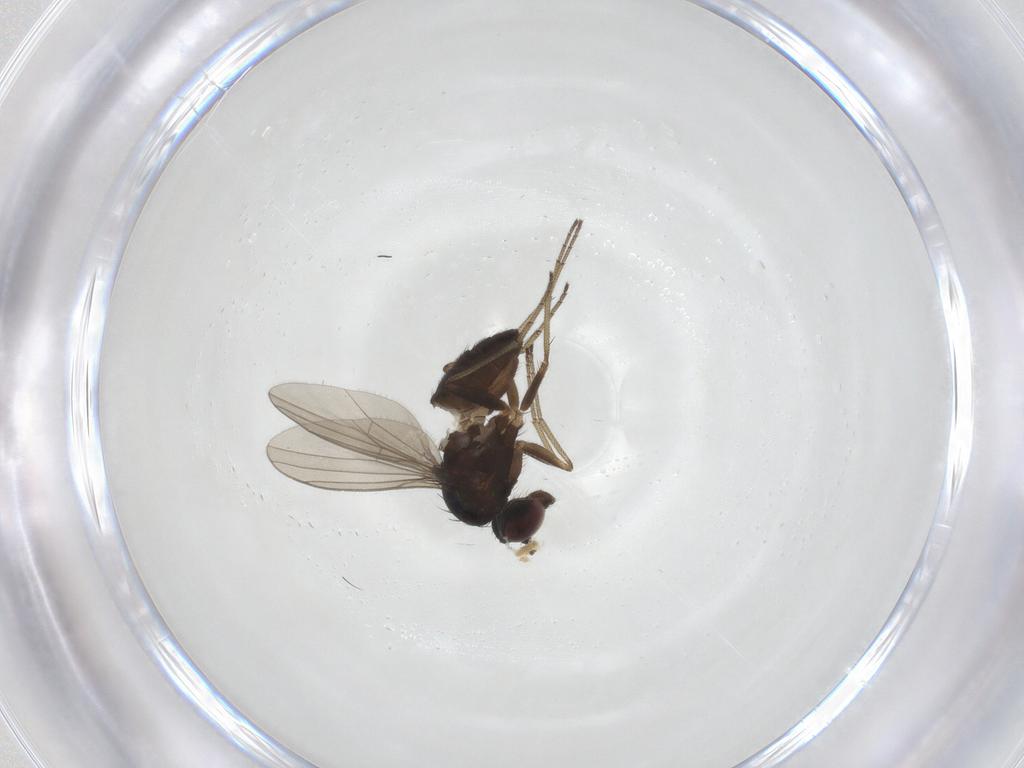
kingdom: Animalia
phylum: Arthropoda
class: Insecta
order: Diptera
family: Dolichopodidae
